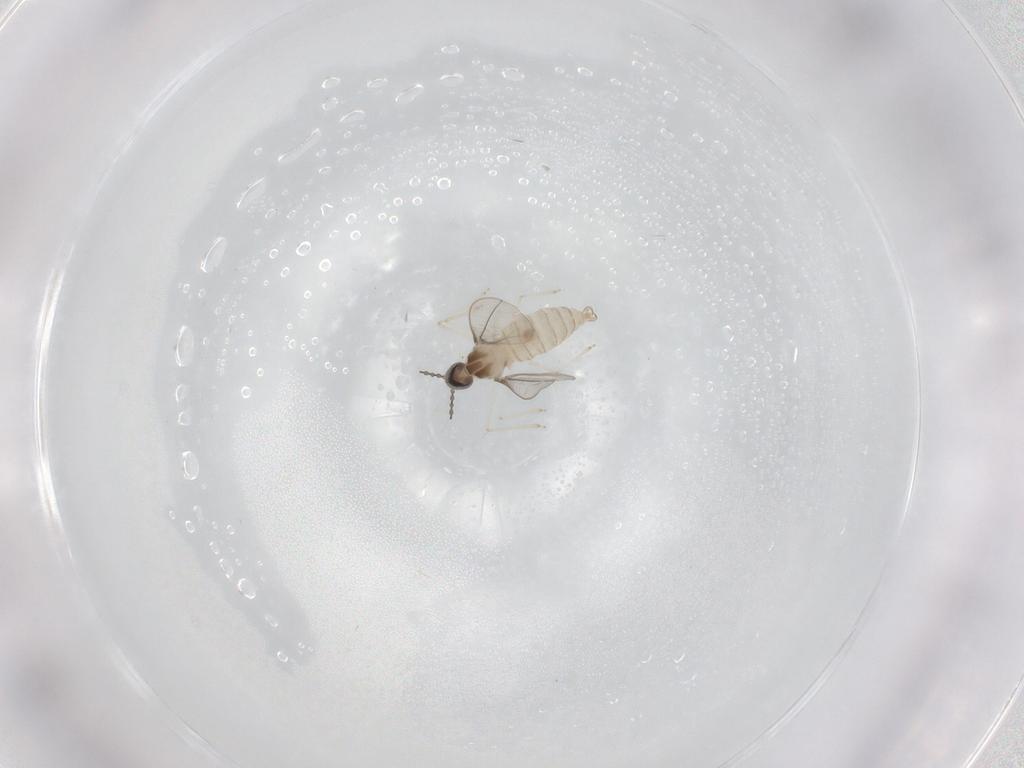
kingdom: Animalia
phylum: Arthropoda
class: Insecta
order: Diptera
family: Cecidomyiidae
